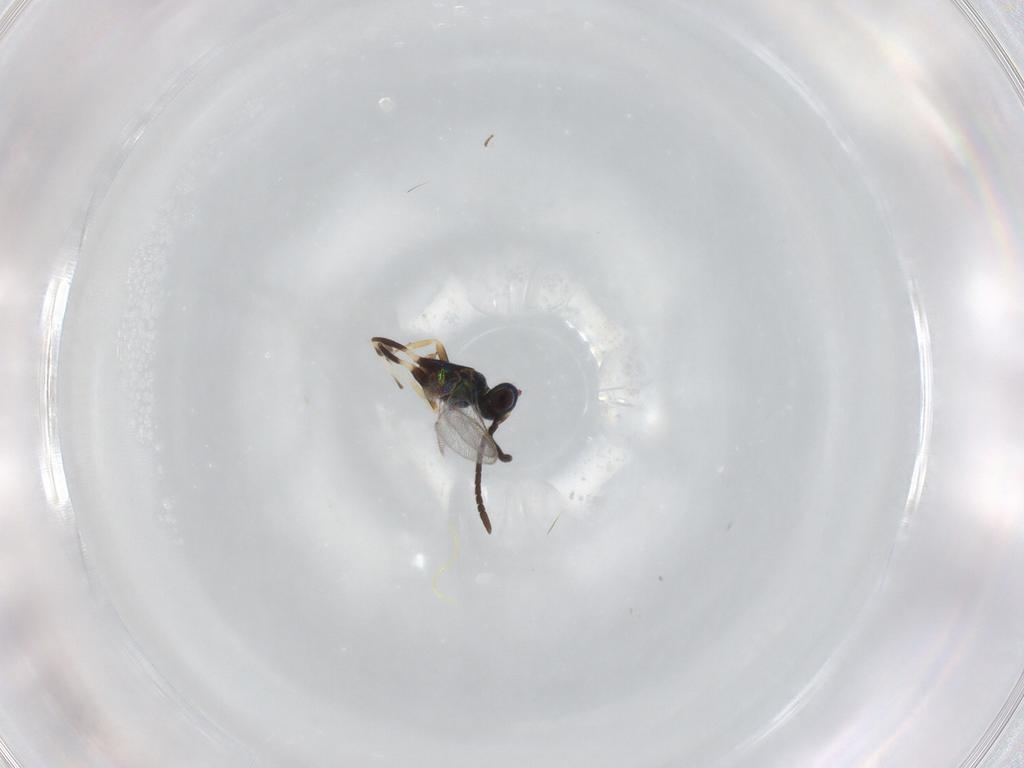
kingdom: Animalia
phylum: Arthropoda
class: Insecta
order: Hymenoptera
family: Eupelmidae
